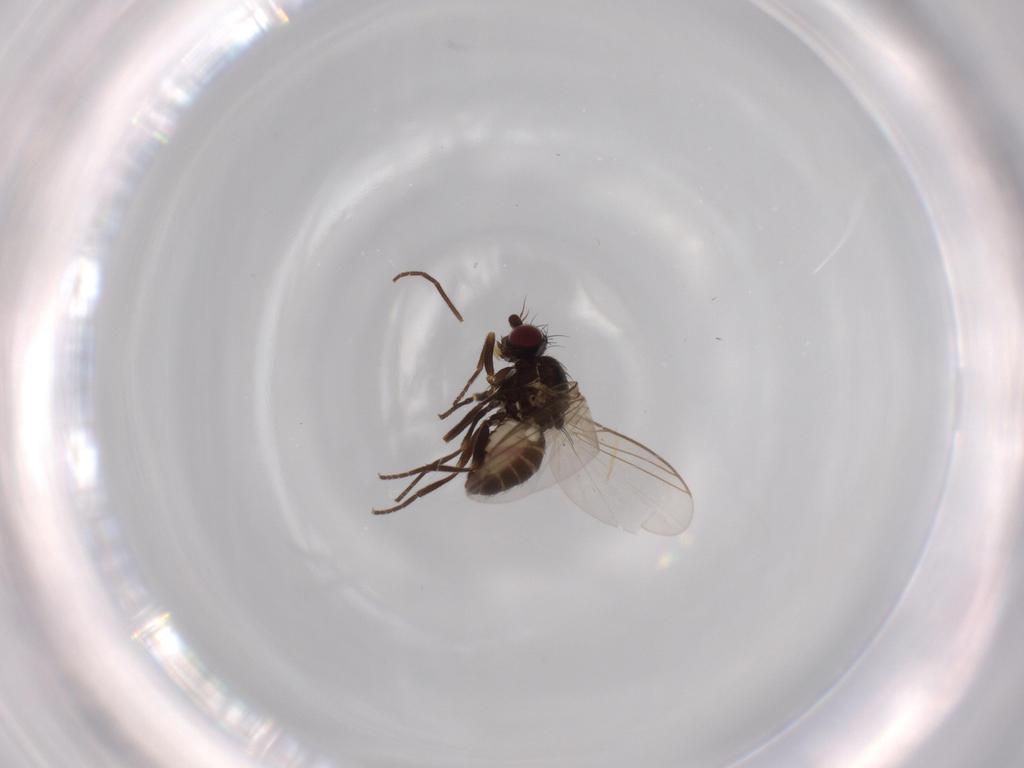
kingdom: Animalia
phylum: Arthropoda
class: Insecta
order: Diptera
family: Agromyzidae
